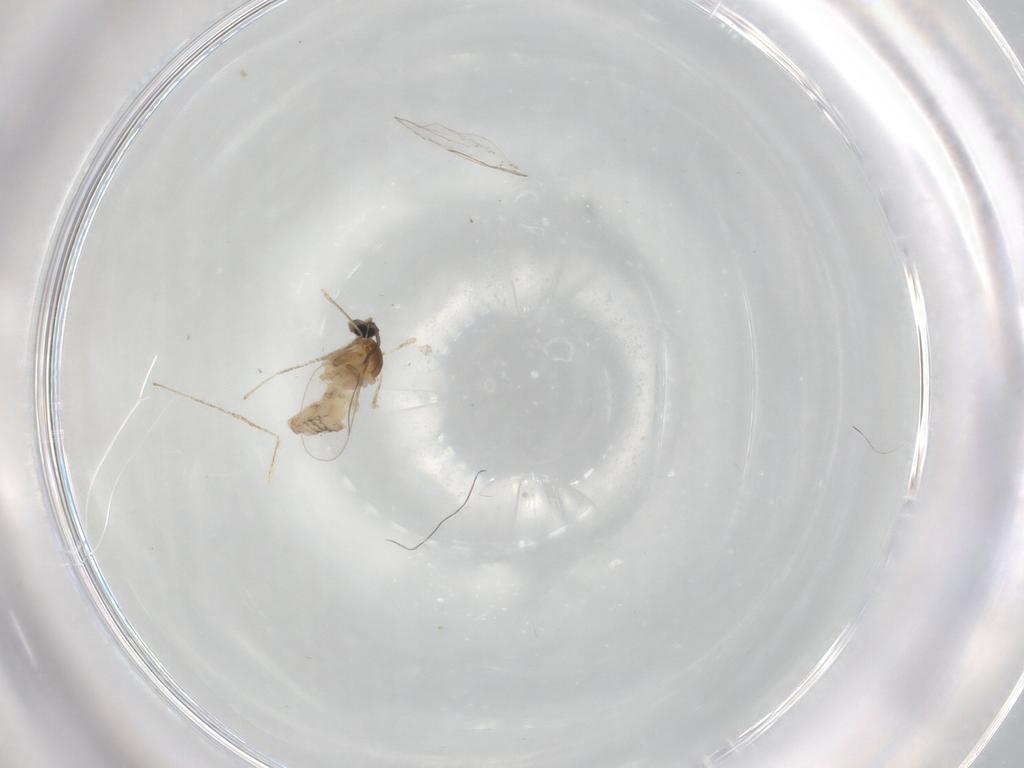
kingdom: Animalia
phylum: Arthropoda
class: Insecta
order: Diptera
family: Cecidomyiidae
